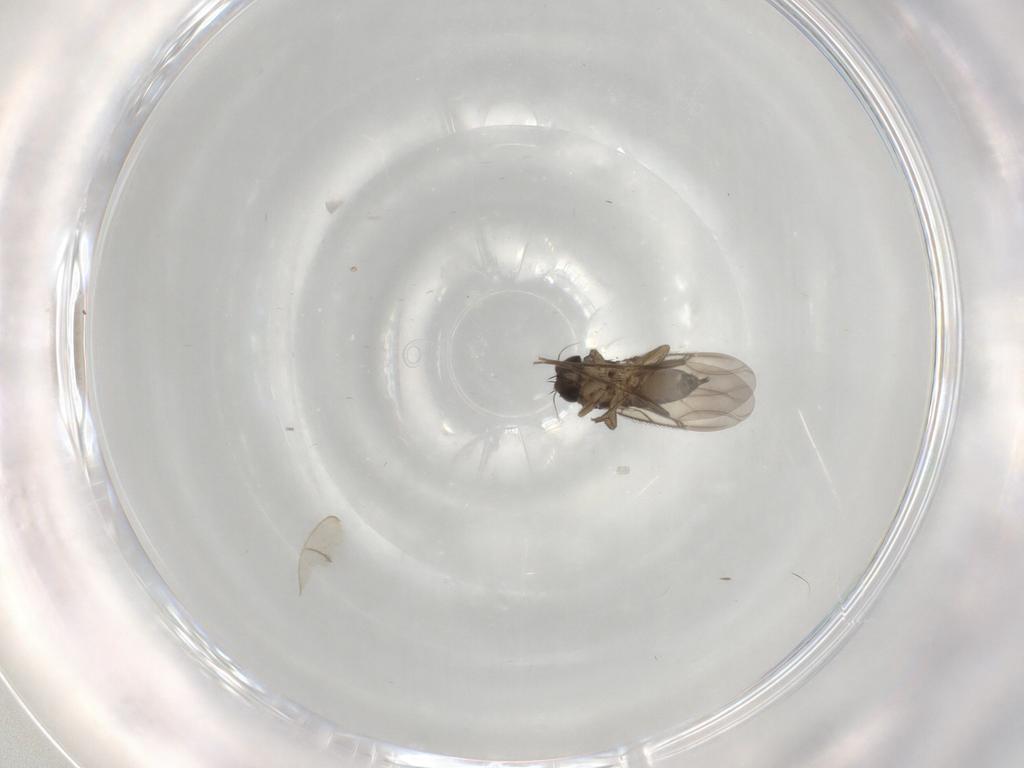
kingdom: Animalia
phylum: Arthropoda
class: Insecta
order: Diptera
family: Phoridae
